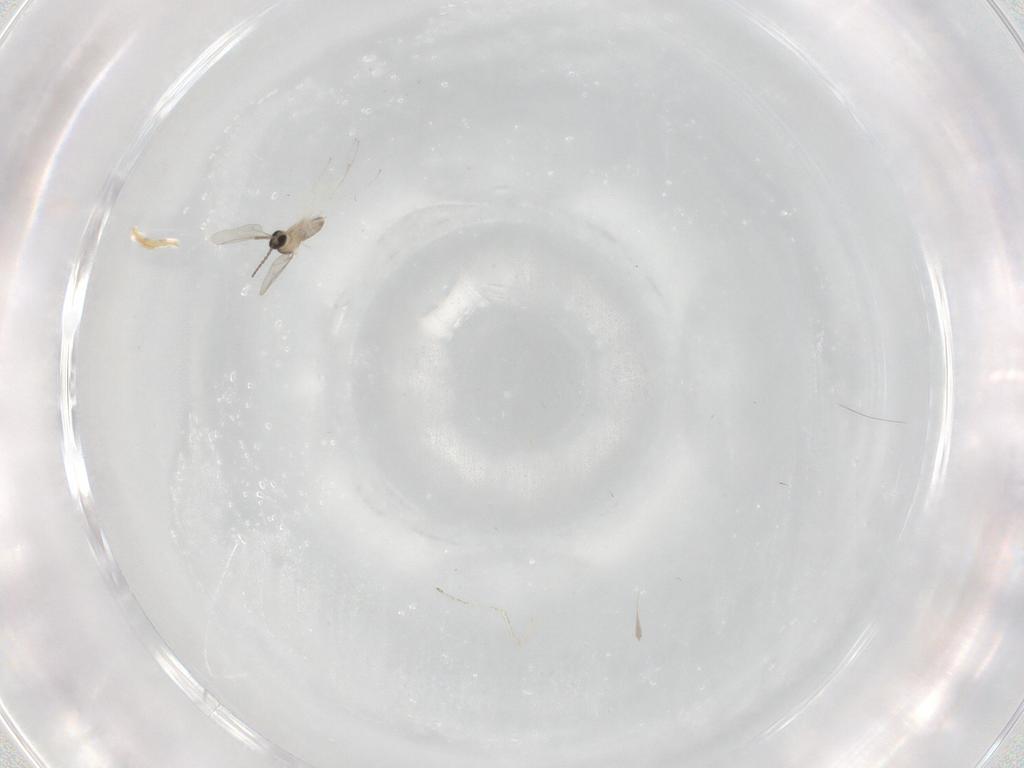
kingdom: Animalia
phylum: Arthropoda
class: Insecta
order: Diptera
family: Cecidomyiidae
